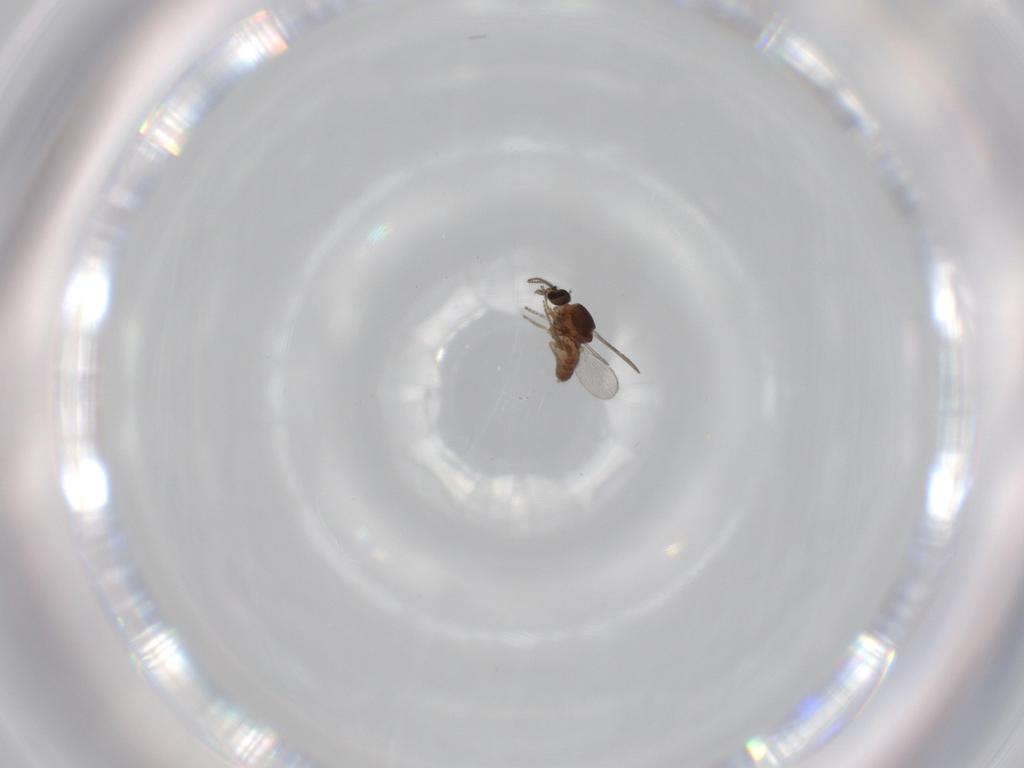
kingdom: Animalia
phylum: Arthropoda
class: Insecta
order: Diptera
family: Ceratopogonidae
